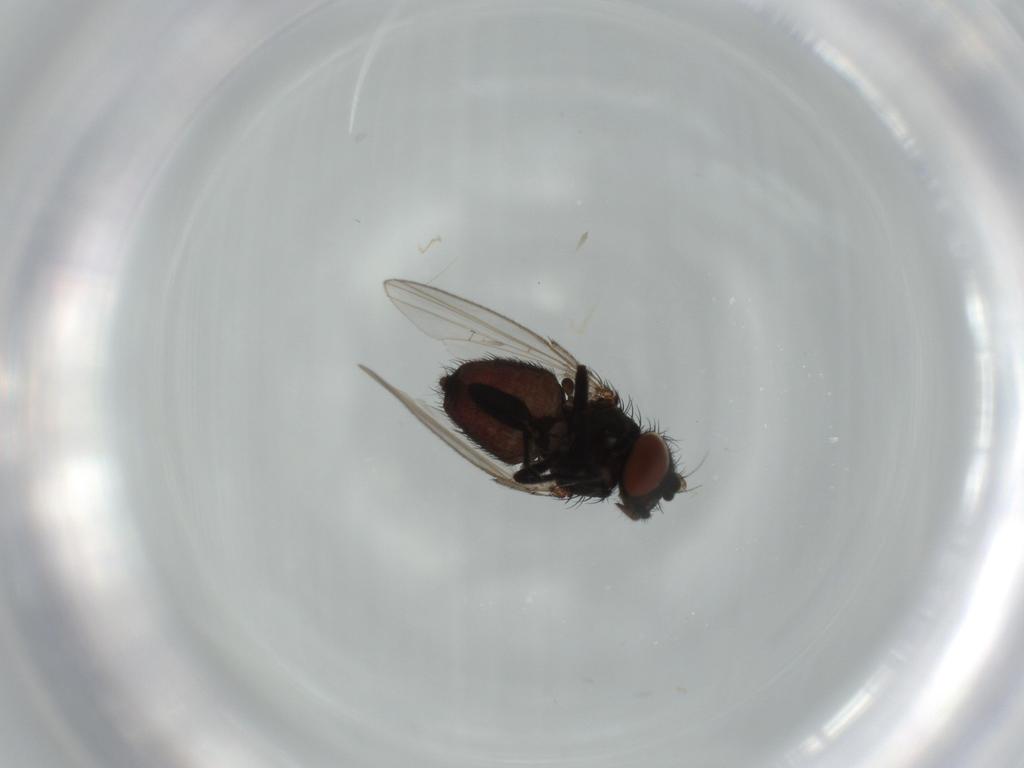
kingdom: Animalia
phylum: Arthropoda
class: Insecta
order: Diptera
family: Cecidomyiidae
